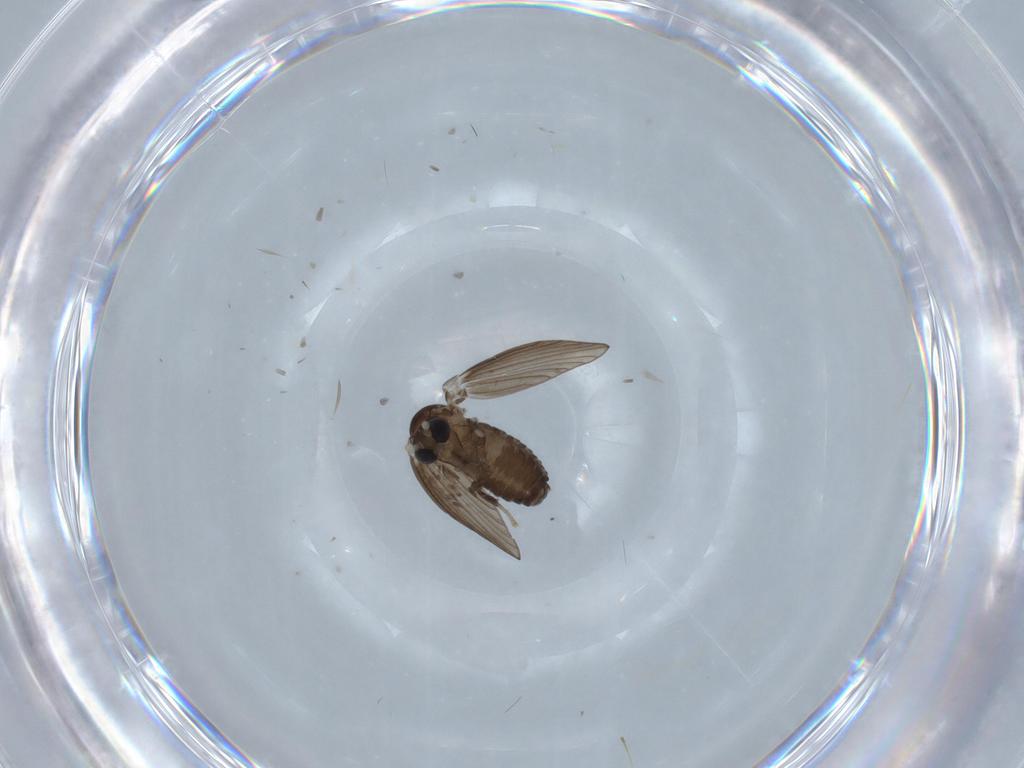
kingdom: Animalia
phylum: Arthropoda
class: Insecta
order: Diptera
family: Psychodidae
